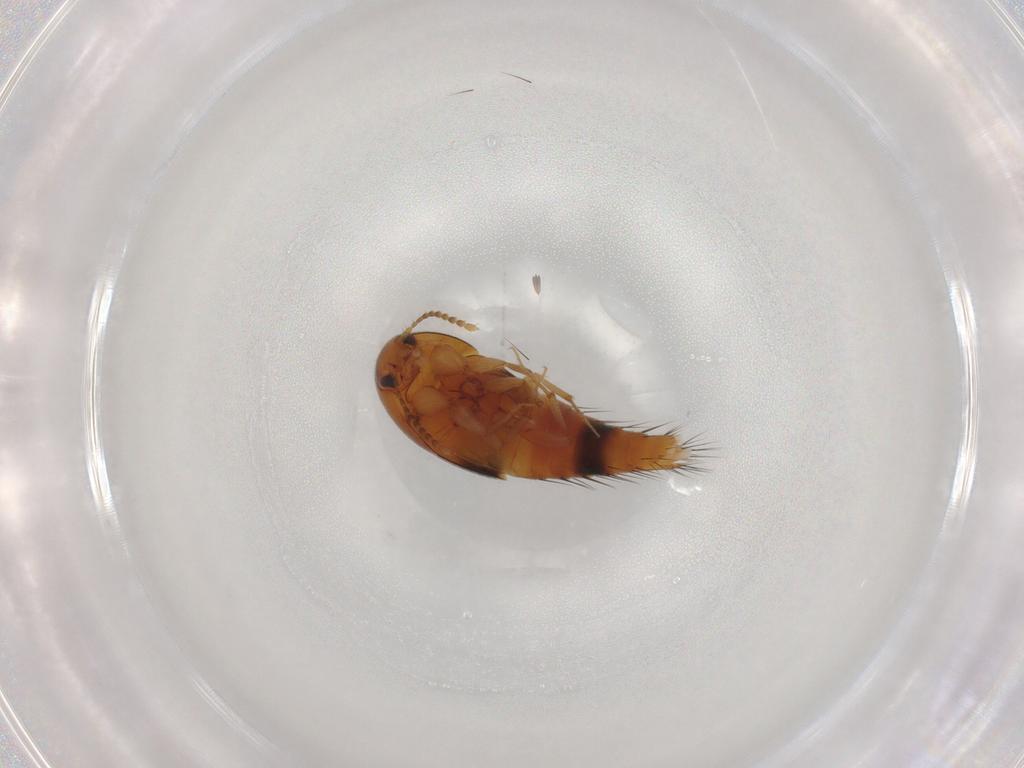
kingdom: Animalia
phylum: Arthropoda
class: Insecta
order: Coleoptera
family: Staphylinidae
